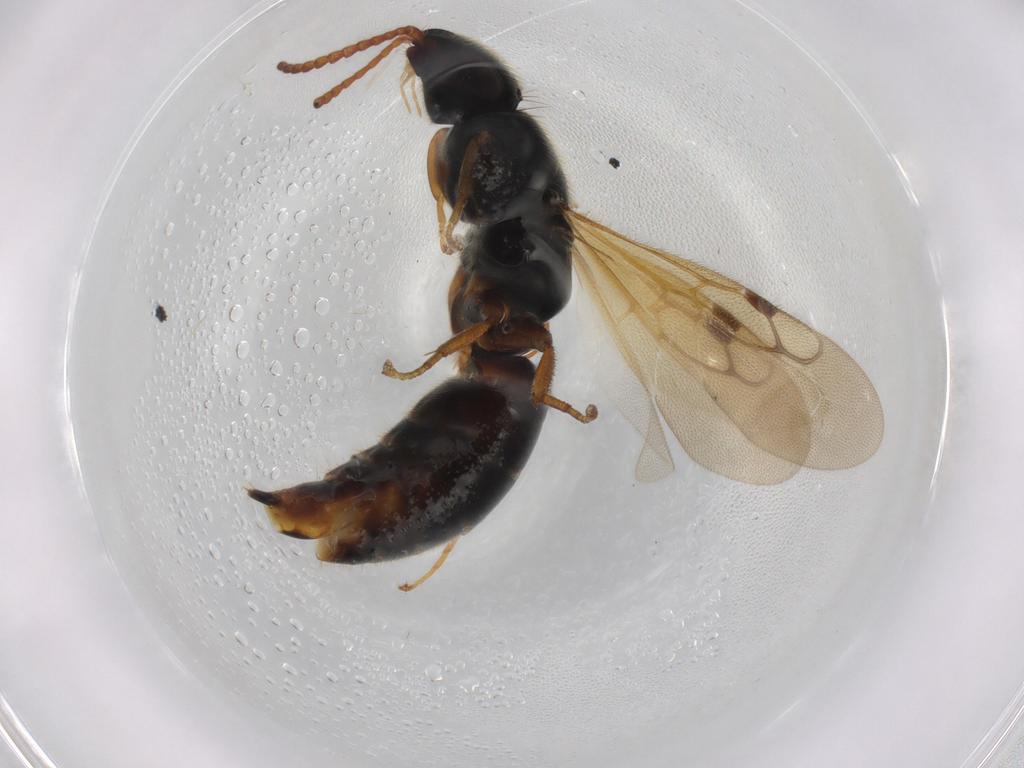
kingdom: Animalia
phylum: Arthropoda
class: Insecta
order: Hymenoptera
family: Bethylidae
